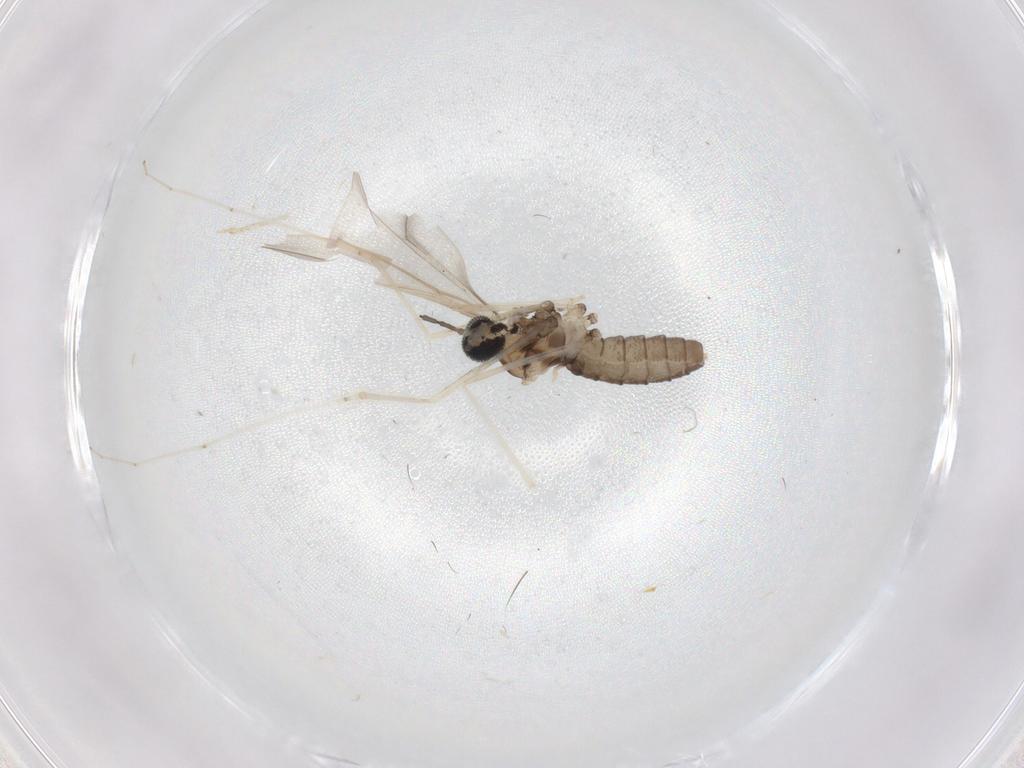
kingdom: Animalia
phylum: Arthropoda
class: Insecta
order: Diptera
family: Cecidomyiidae
